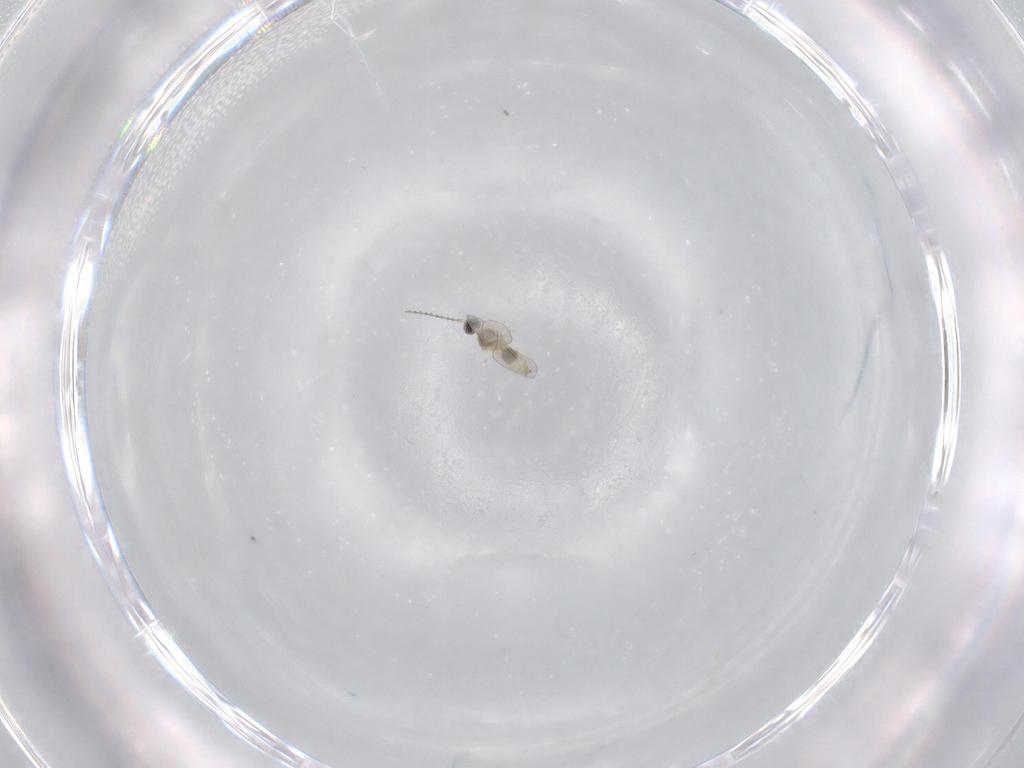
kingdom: Animalia
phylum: Arthropoda
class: Insecta
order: Diptera
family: Cecidomyiidae
